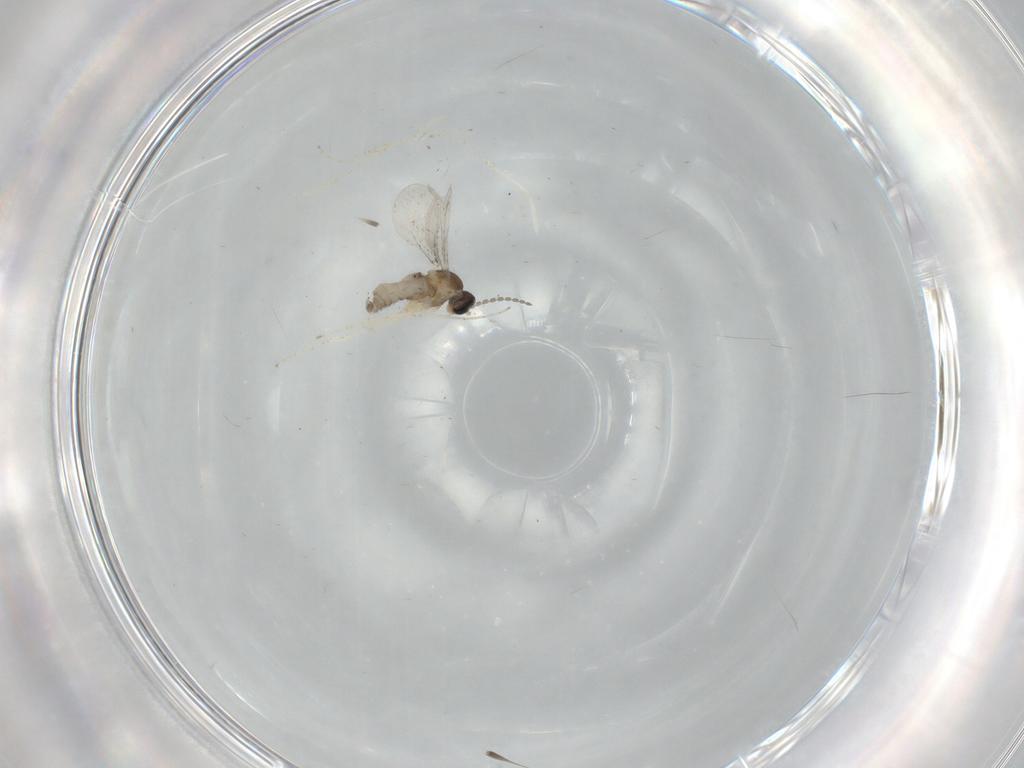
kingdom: Animalia
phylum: Arthropoda
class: Insecta
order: Diptera
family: Cecidomyiidae
